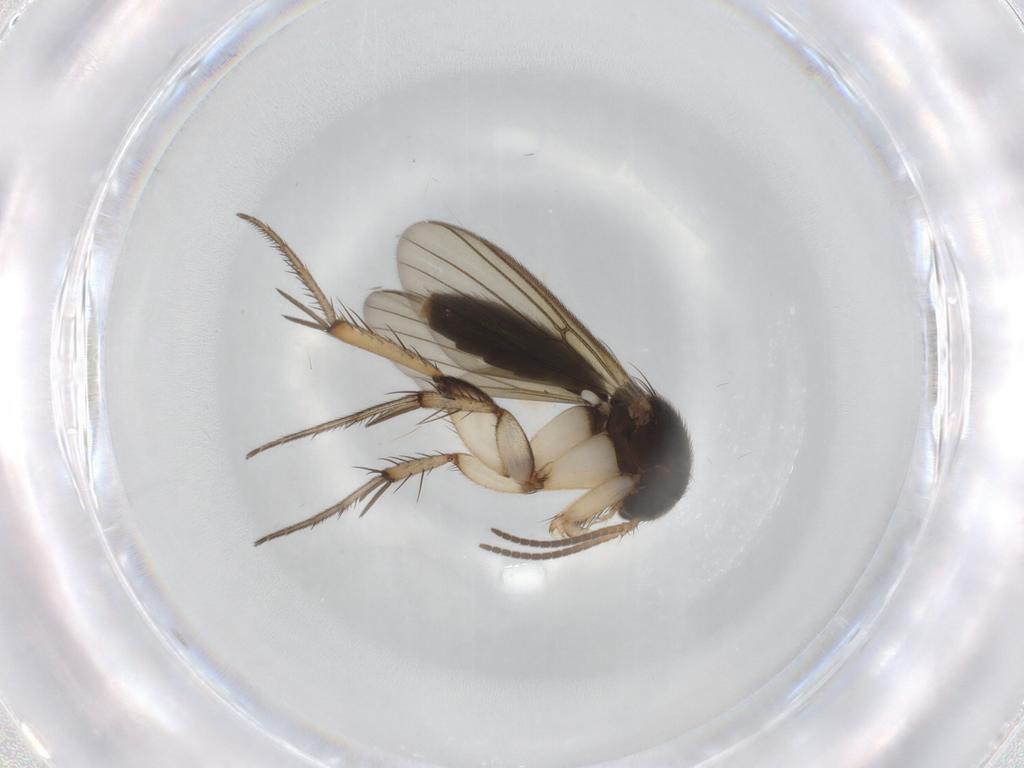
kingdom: Animalia
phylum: Arthropoda
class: Insecta
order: Diptera
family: Mycetophilidae
